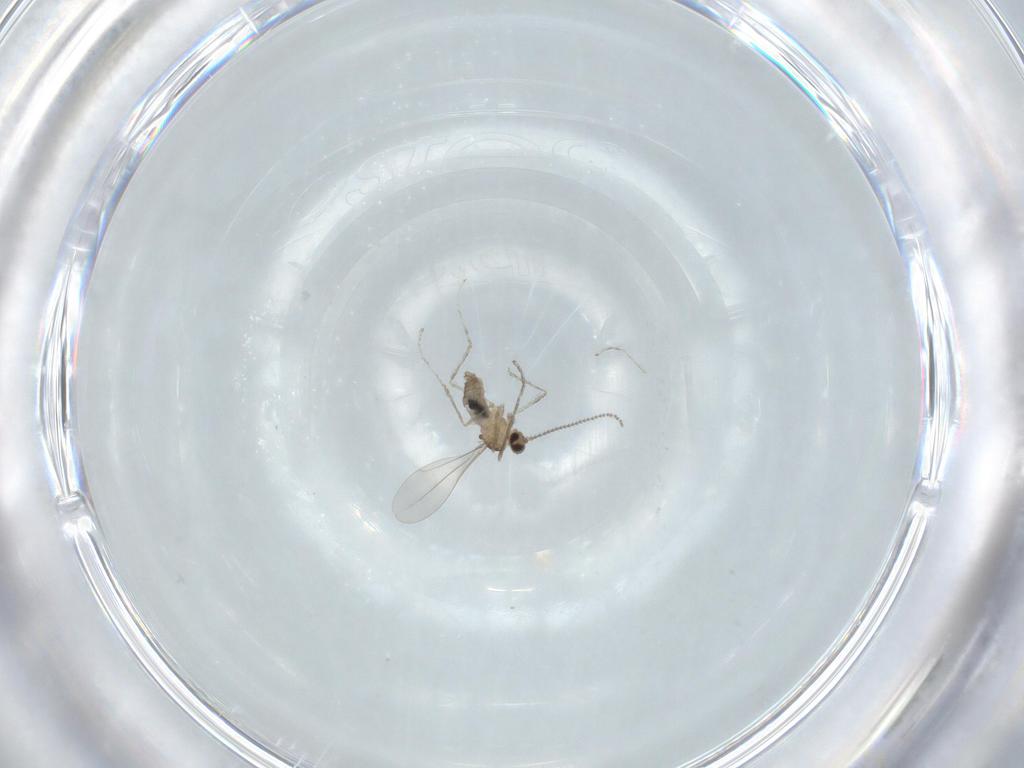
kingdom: Animalia
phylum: Arthropoda
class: Insecta
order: Diptera
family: Cecidomyiidae
